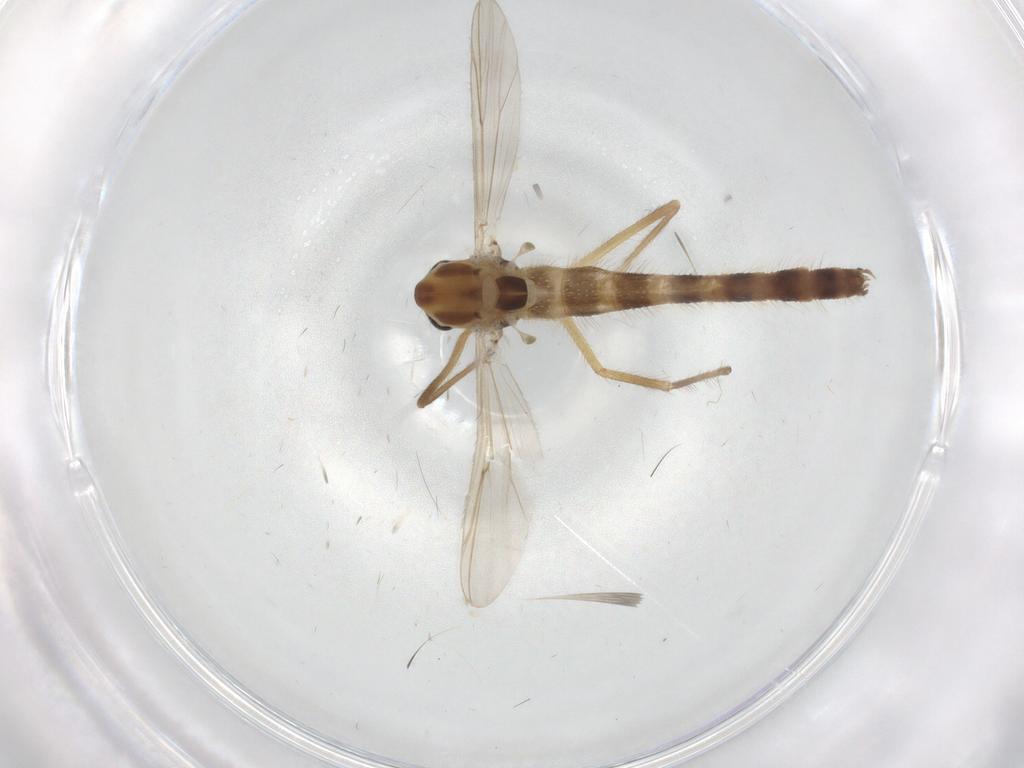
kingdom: Animalia
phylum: Arthropoda
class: Insecta
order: Diptera
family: Chironomidae
